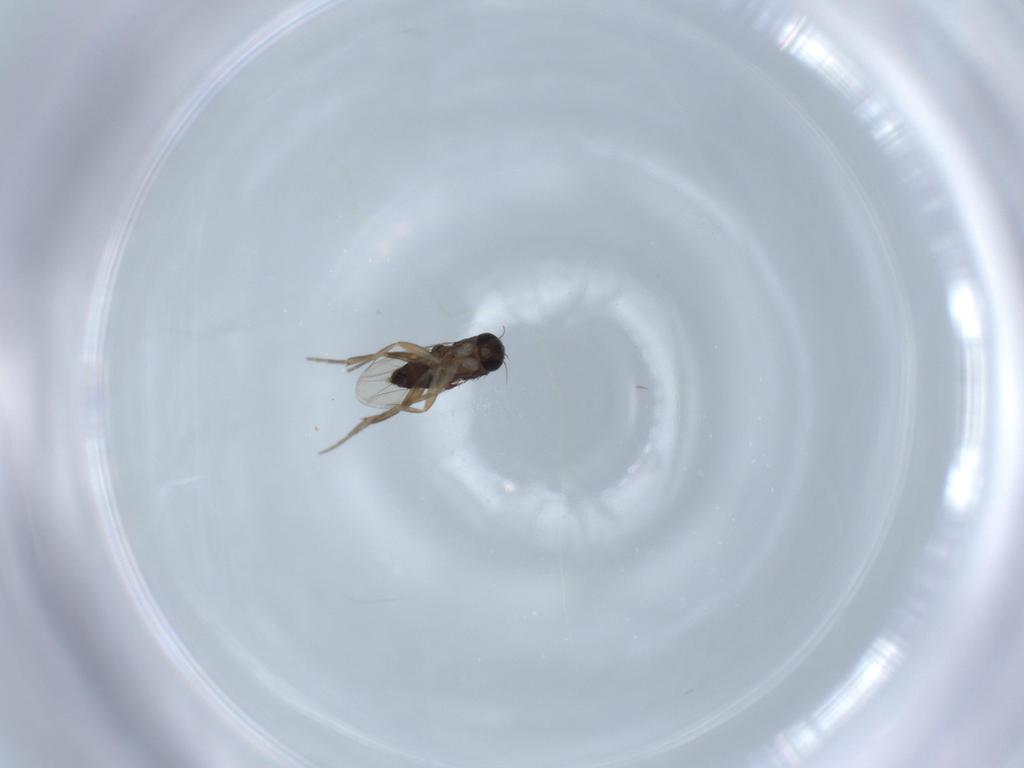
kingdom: Animalia
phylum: Arthropoda
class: Insecta
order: Diptera
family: Phoridae
